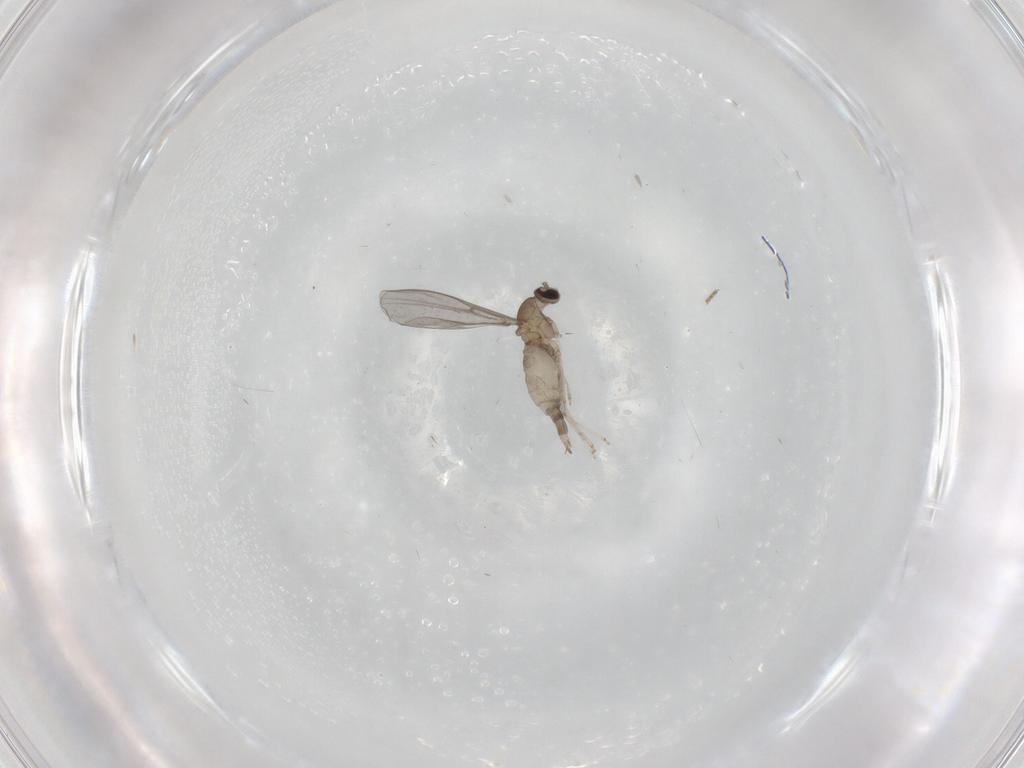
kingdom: Animalia
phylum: Arthropoda
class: Insecta
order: Diptera
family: Cecidomyiidae
